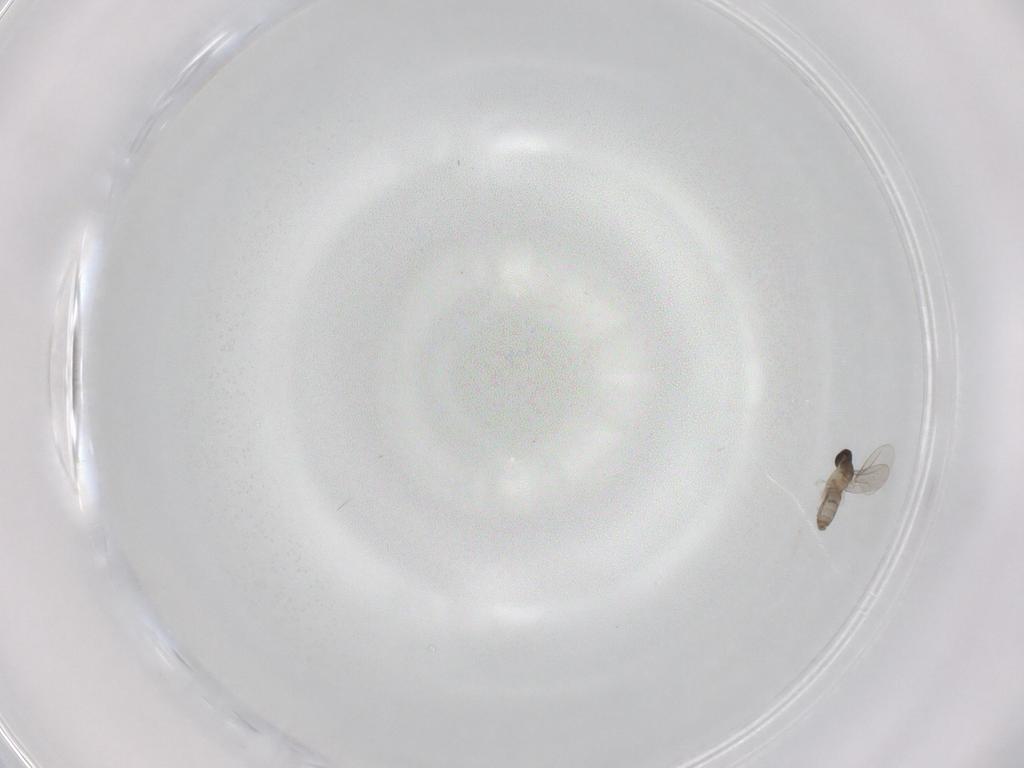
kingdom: Animalia
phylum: Arthropoda
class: Insecta
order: Diptera
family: Cecidomyiidae
